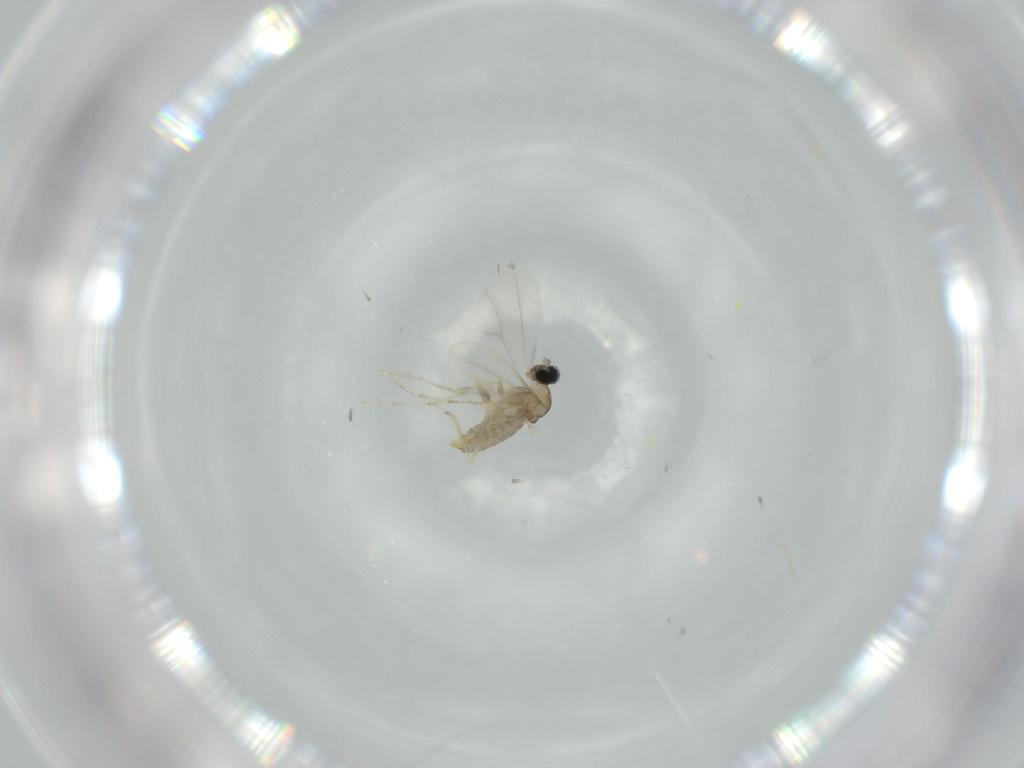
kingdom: Animalia
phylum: Arthropoda
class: Insecta
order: Diptera
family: Cecidomyiidae
